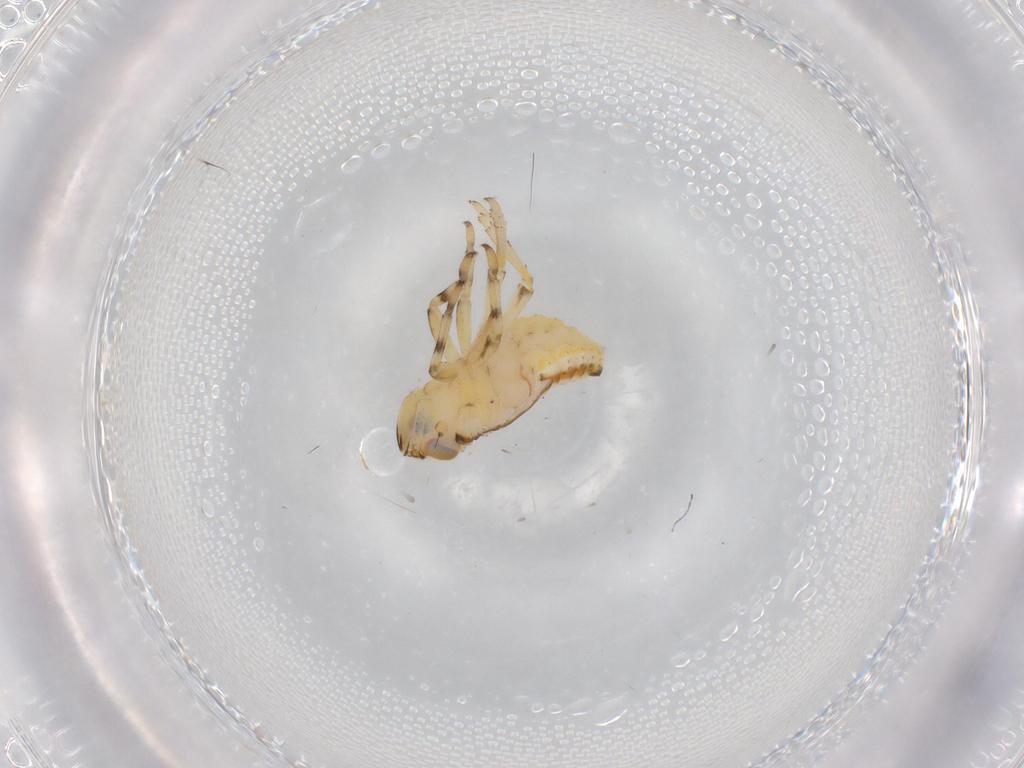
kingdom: Animalia
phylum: Arthropoda
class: Insecta
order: Hemiptera
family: Issidae
